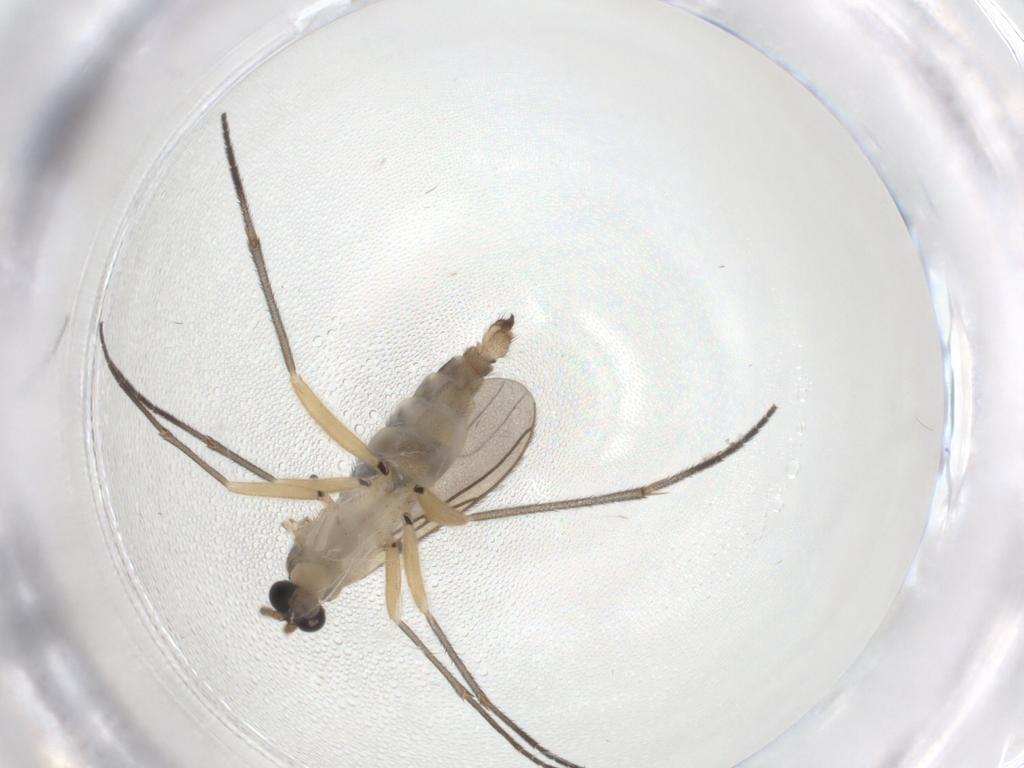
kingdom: Animalia
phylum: Arthropoda
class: Insecta
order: Diptera
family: Sciaridae
